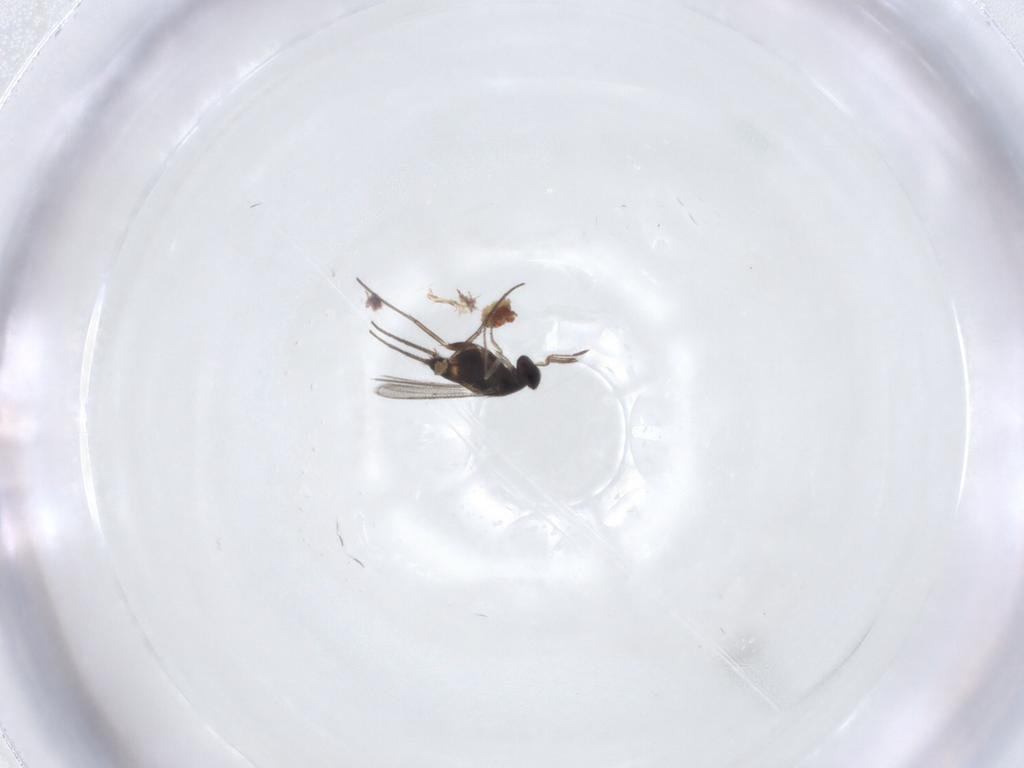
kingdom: Animalia
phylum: Arthropoda
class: Insecta
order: Hymenoptera
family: Eulophidae
